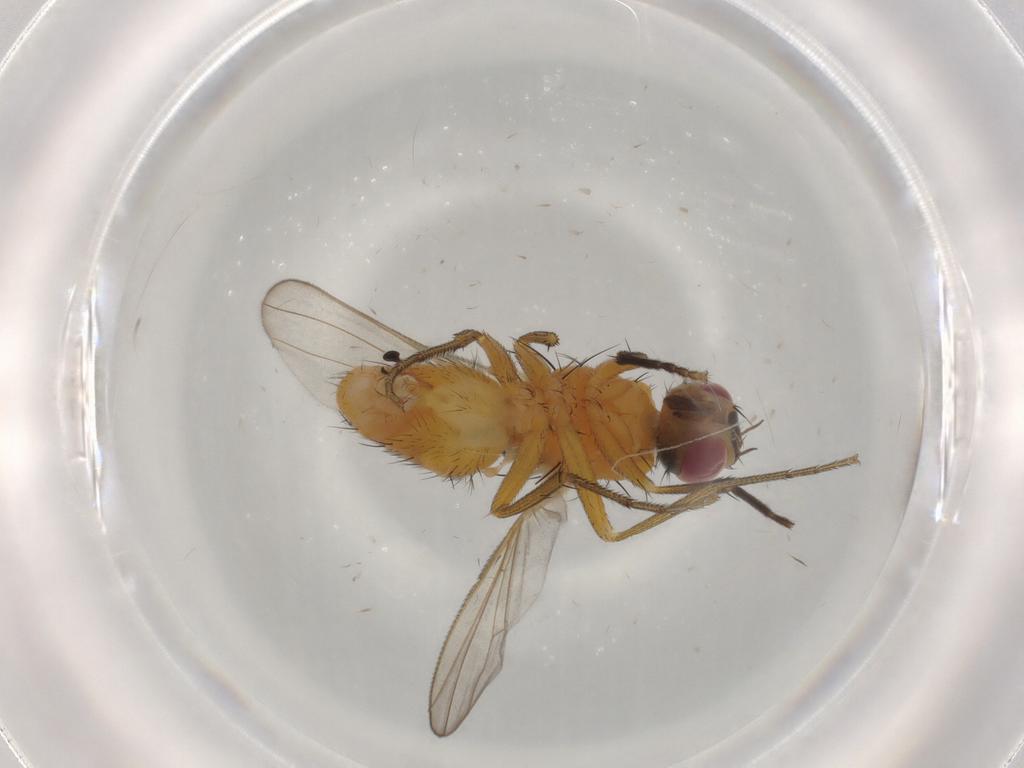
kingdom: Animalia
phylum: Arthropoda
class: Insecta
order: Diptera
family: Muscidae
